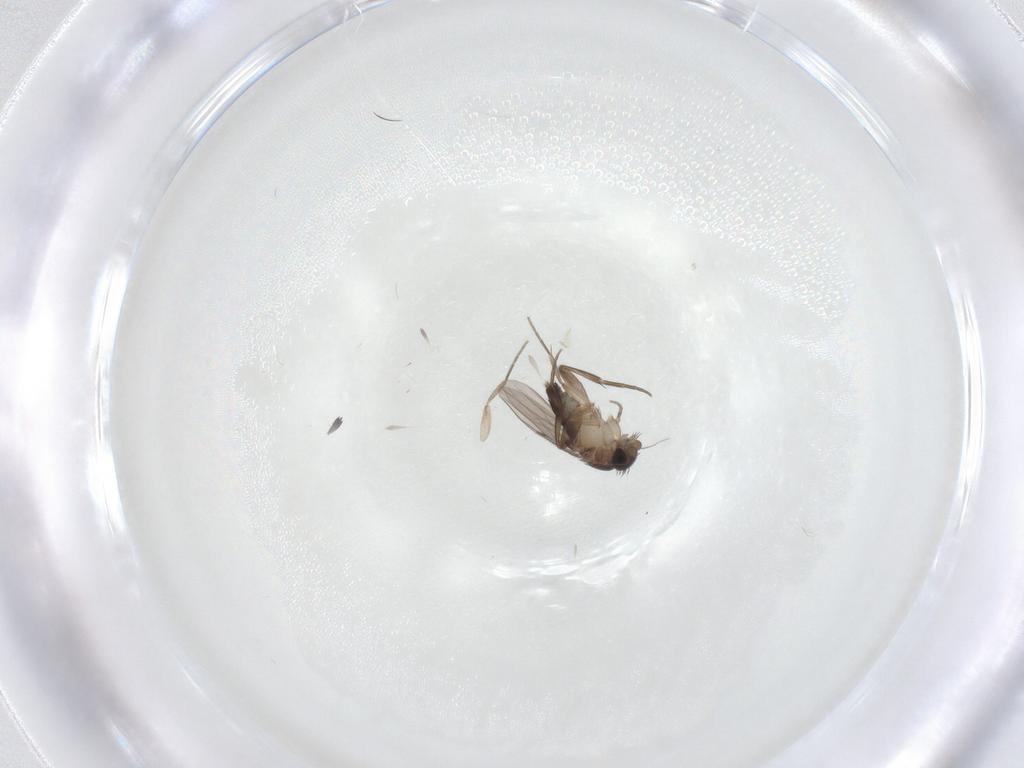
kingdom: Animalia
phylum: Arthropoda
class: Insecta
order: Diptera
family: Phoridae
